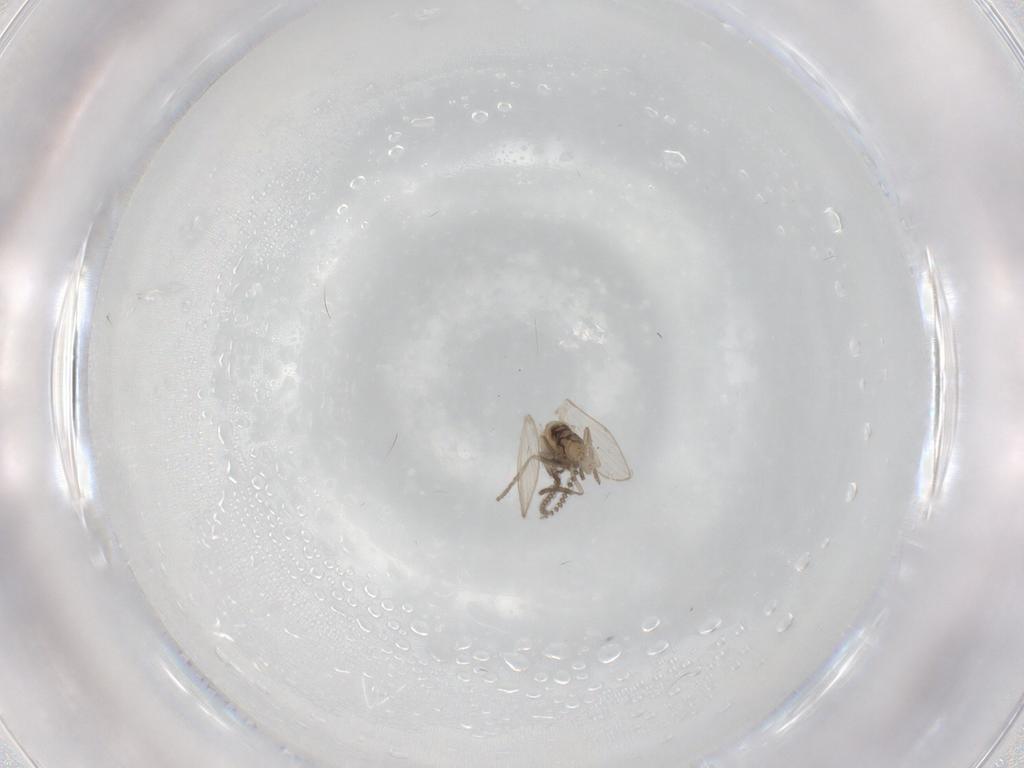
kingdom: Animalia
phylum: Arthropoda
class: Insecta
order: Diptera
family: Psychodidae
